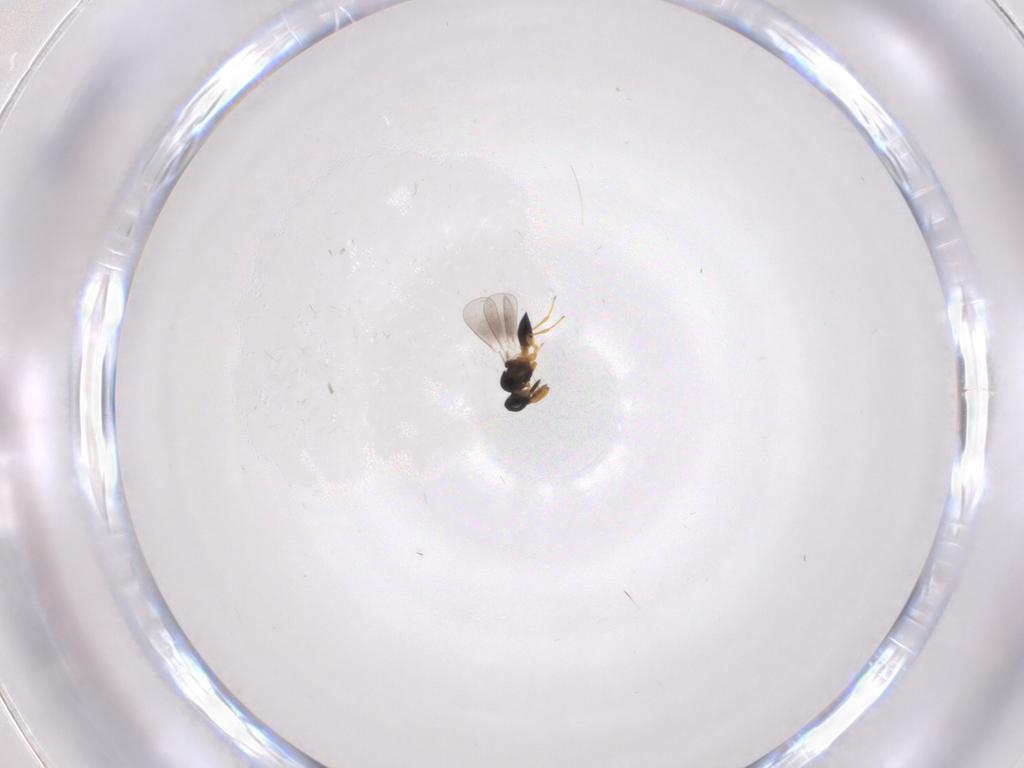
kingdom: Animalia
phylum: Arthropoda
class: Insecta
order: Hymenoptera
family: Platygastridae
